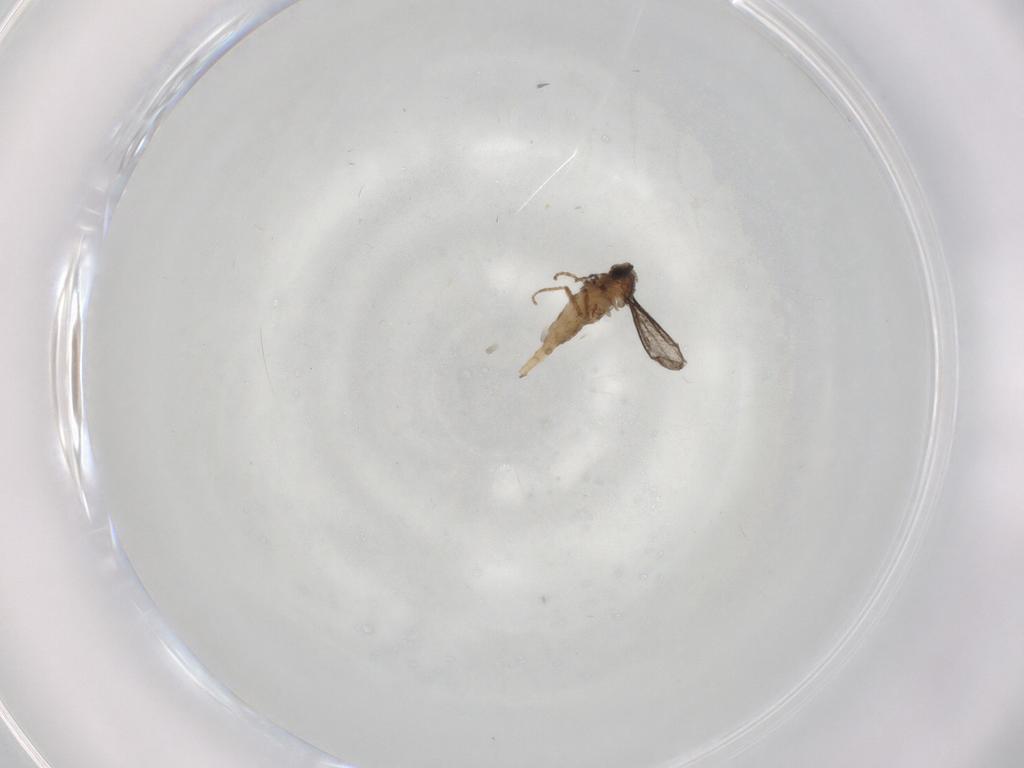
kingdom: Animalia
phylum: Arthropoda
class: Insecta
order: Diptera
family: Cecidomyiidae
